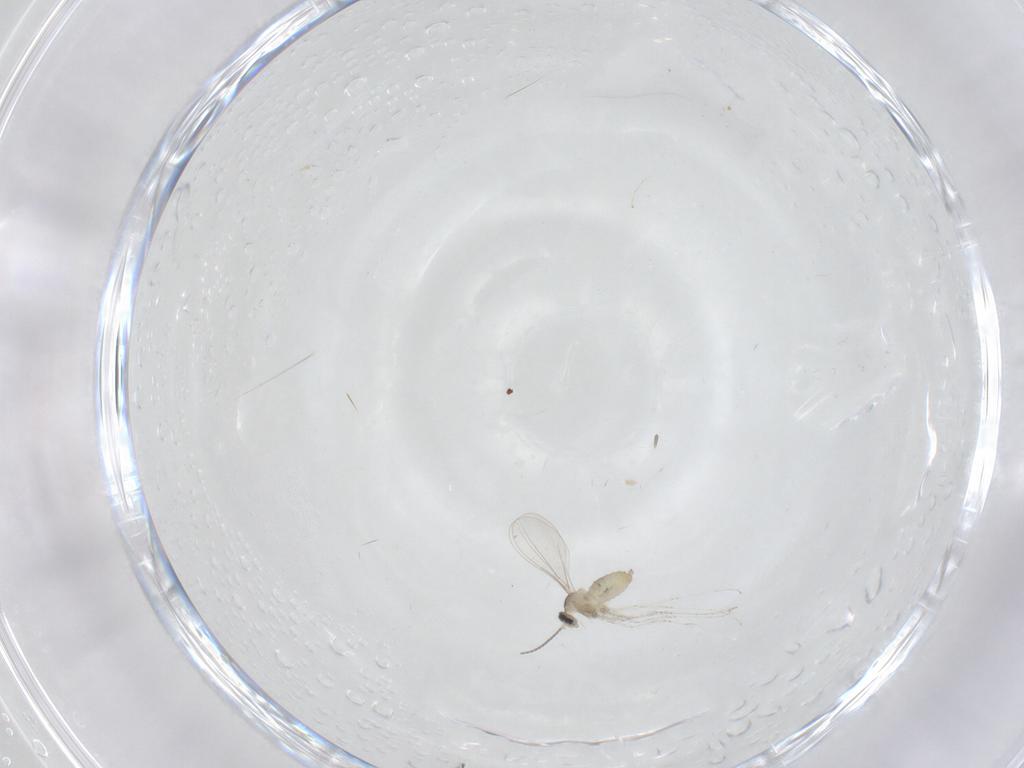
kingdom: Animalia
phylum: Arthropoda
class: Insecta
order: Diptera
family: Cecidomyiidae
